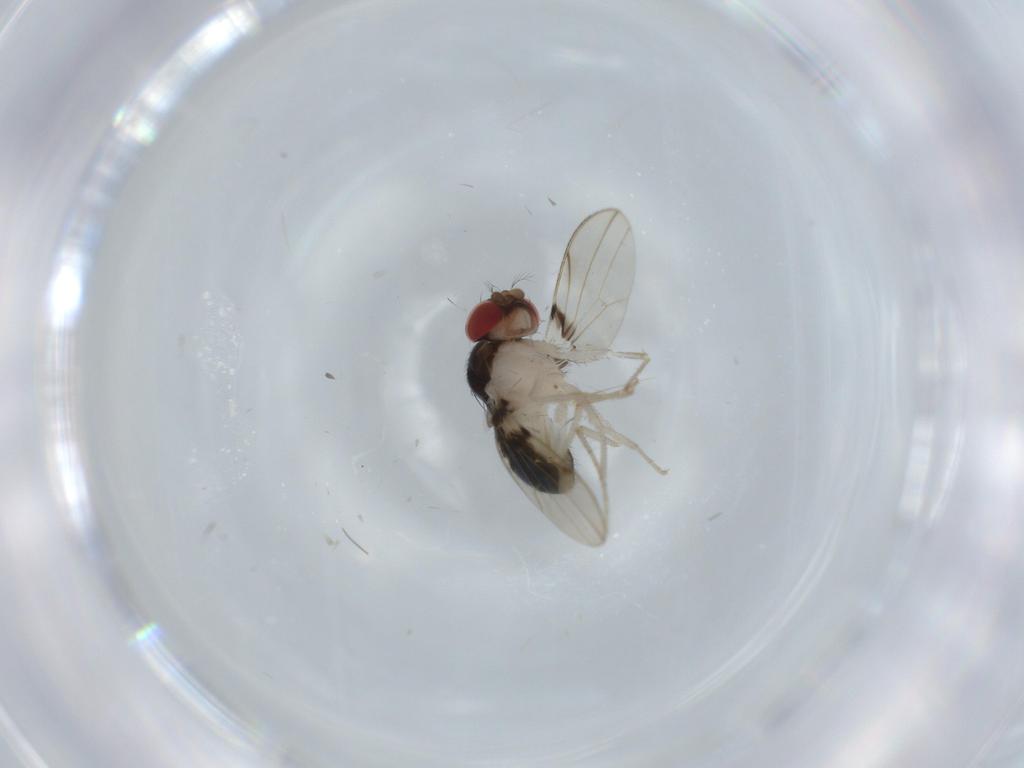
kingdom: Animalia
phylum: Arthropoda
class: Insecta
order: Diptera
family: Drosophilidae
